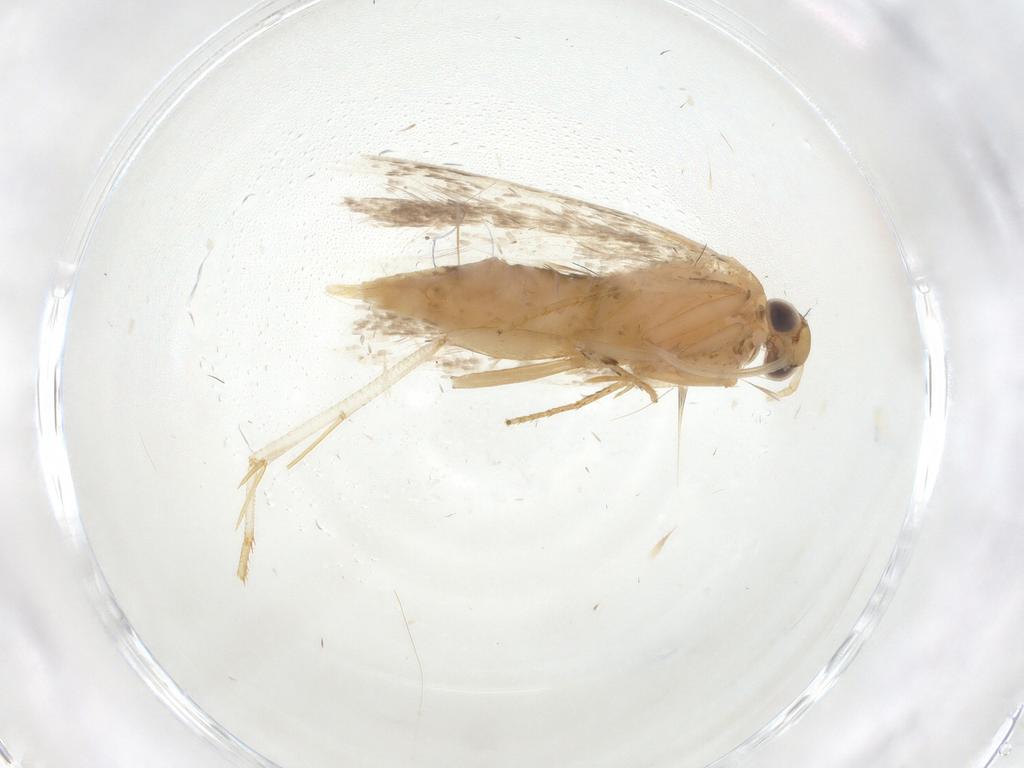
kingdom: Animalia
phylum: Arthropoda
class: Insecta
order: Lepidoptera
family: Gelechiidae
